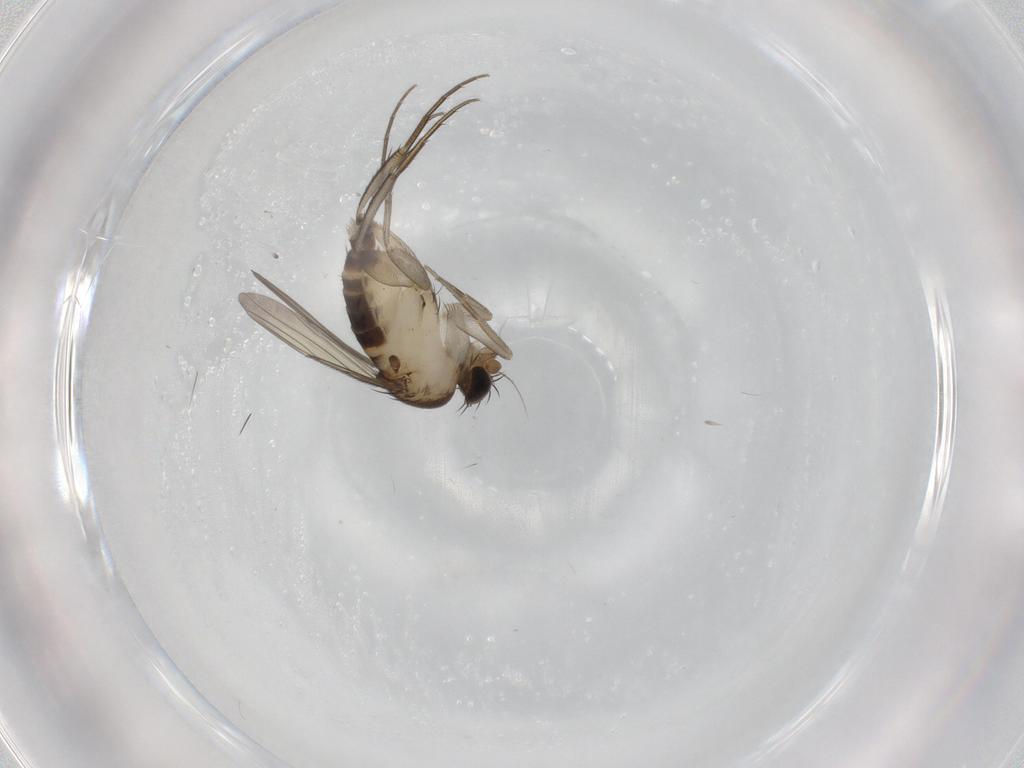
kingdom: Animalia
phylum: Arthropoda
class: Insecta
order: Diptera
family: Phoridae
